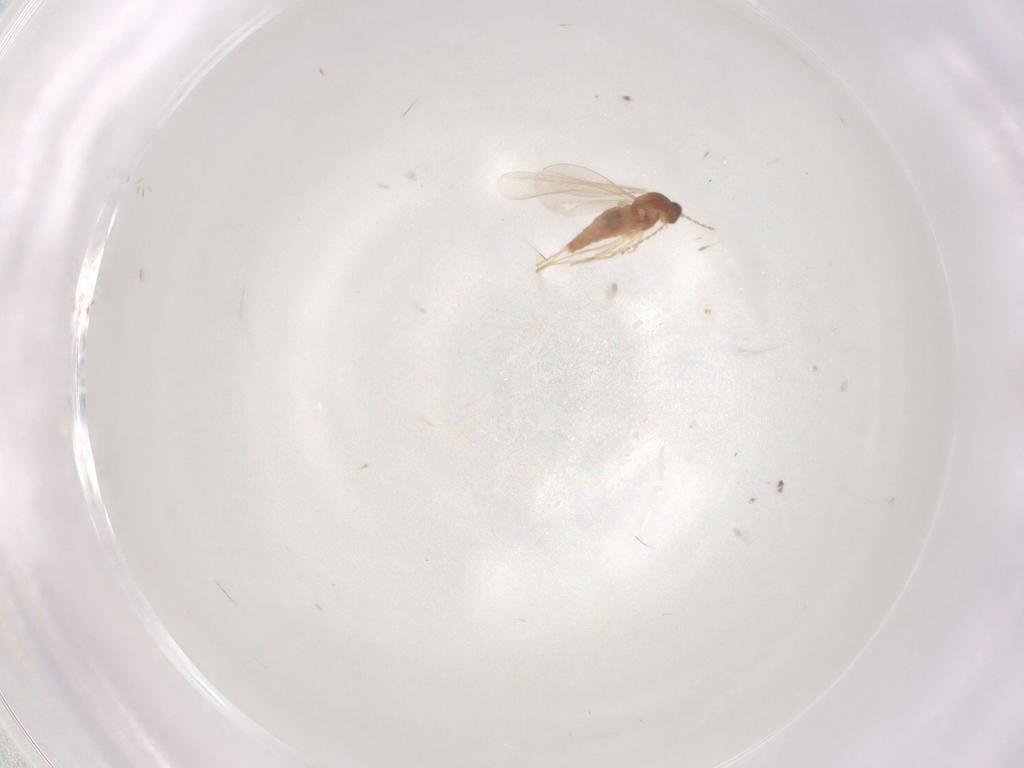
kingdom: Animalia
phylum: Arthropoda
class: Insecta
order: Diptera
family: Cecidomyiidae
